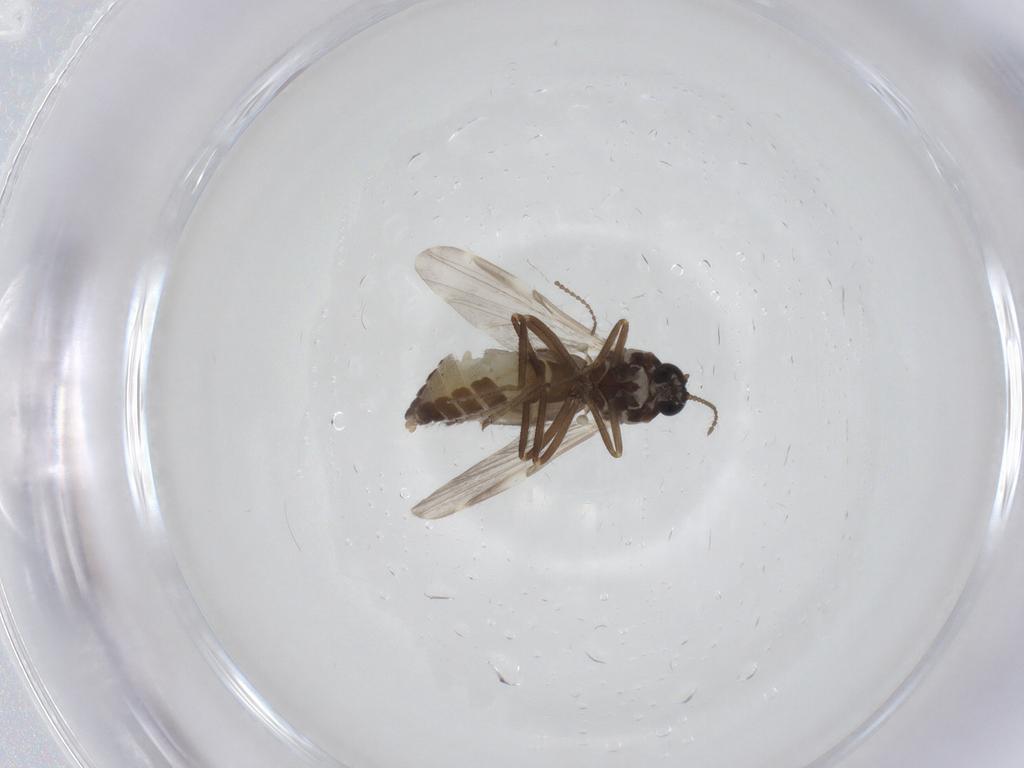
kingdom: Animalia
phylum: Arthropoda
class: Insecta
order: Diptera
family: Ceratopogonidae
